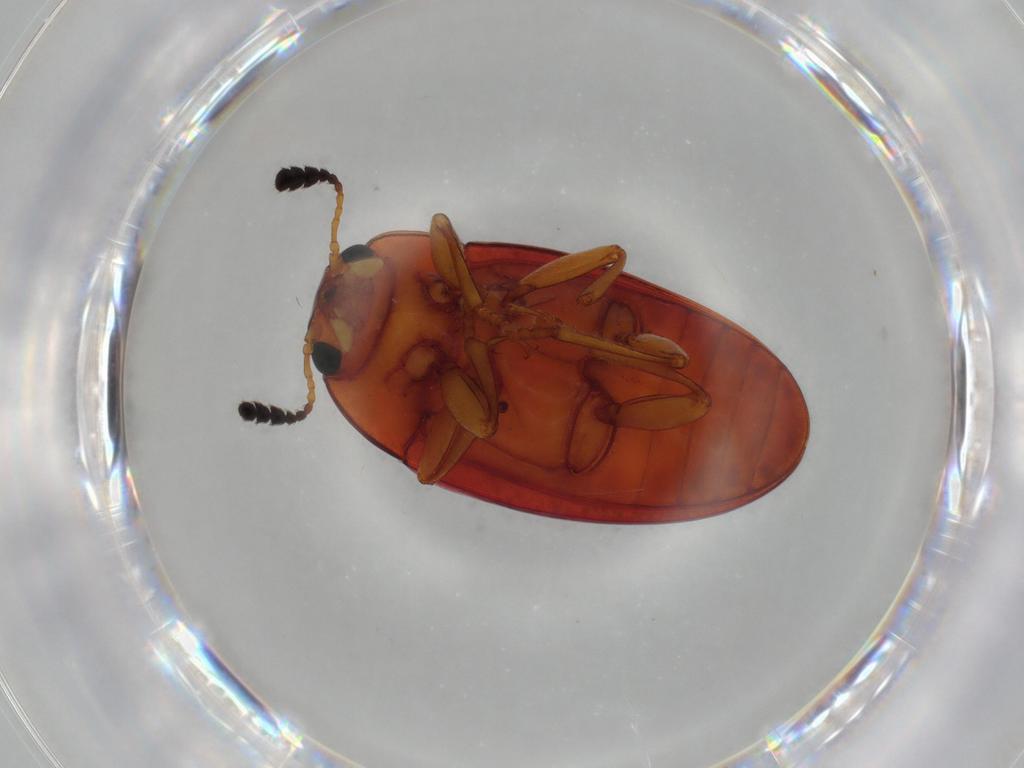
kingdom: Animalia
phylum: Arthropoda
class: Insecta
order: Coleoptera
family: Erotylidae
